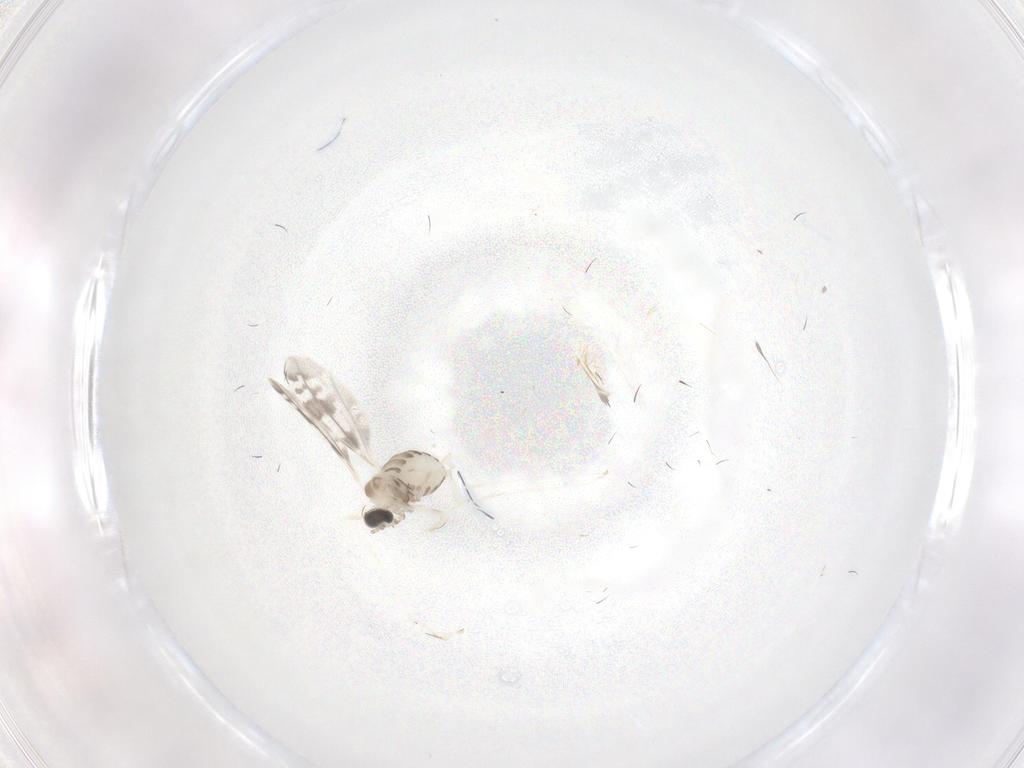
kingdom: Animalia
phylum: Arthropoda
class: Insecta
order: Diptera
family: Cecidomyiidae
